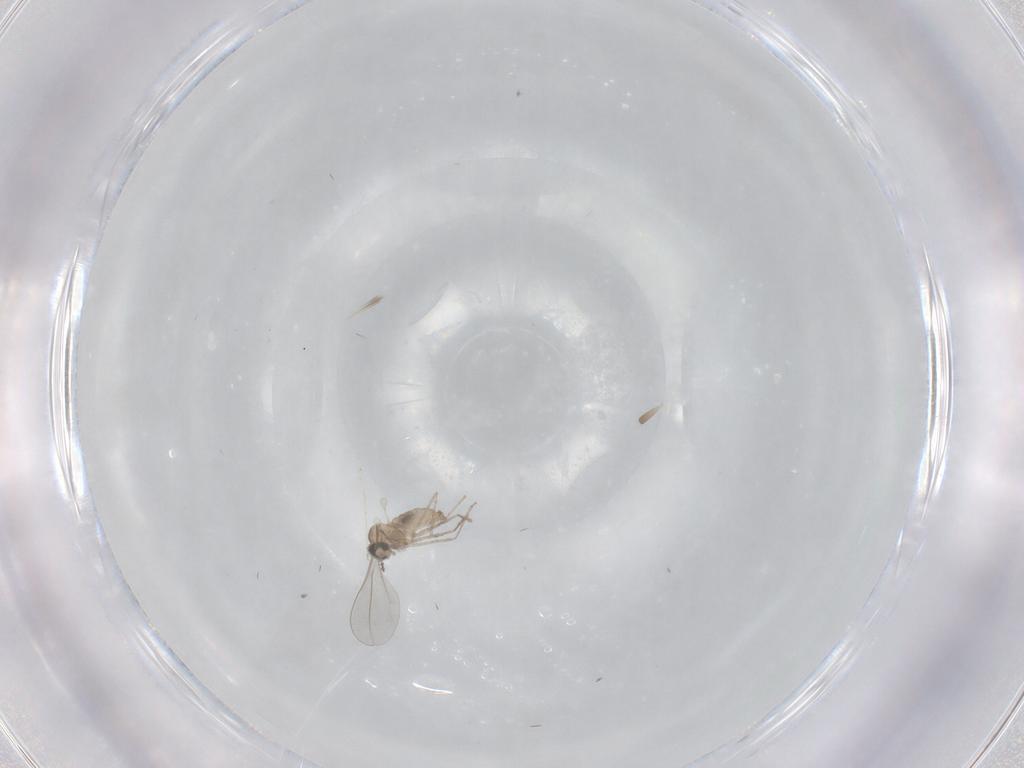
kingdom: Animalia
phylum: Arthropoda
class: Insecta
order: Diptera
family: Cecidomyiidae
